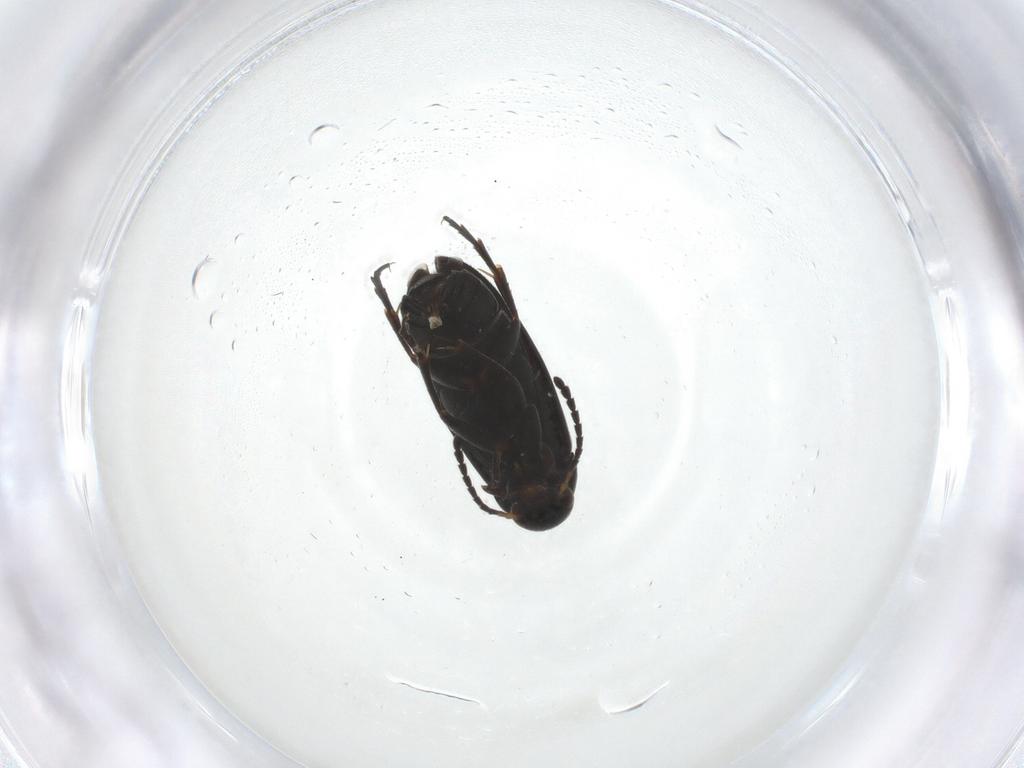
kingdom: Animalia
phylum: Arthropoda
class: Insecta
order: Coleoptera
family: Scraptiidae
